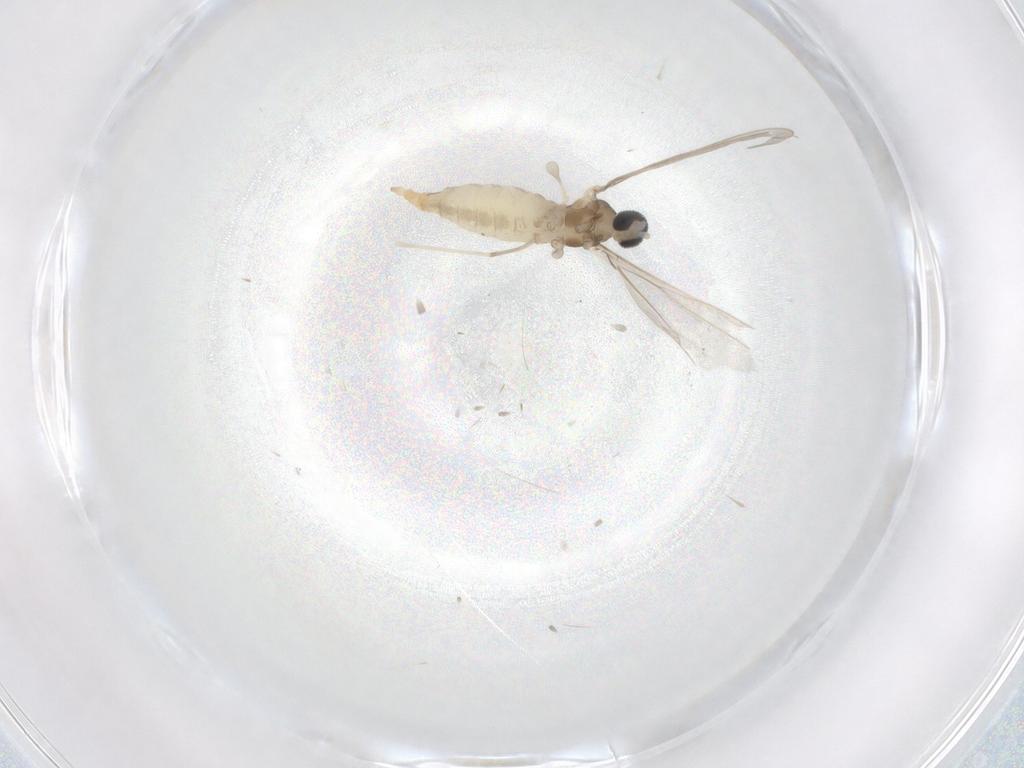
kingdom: Animalia
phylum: Arthropoda
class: Insecta
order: Diptera
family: Cecidomyiidae
